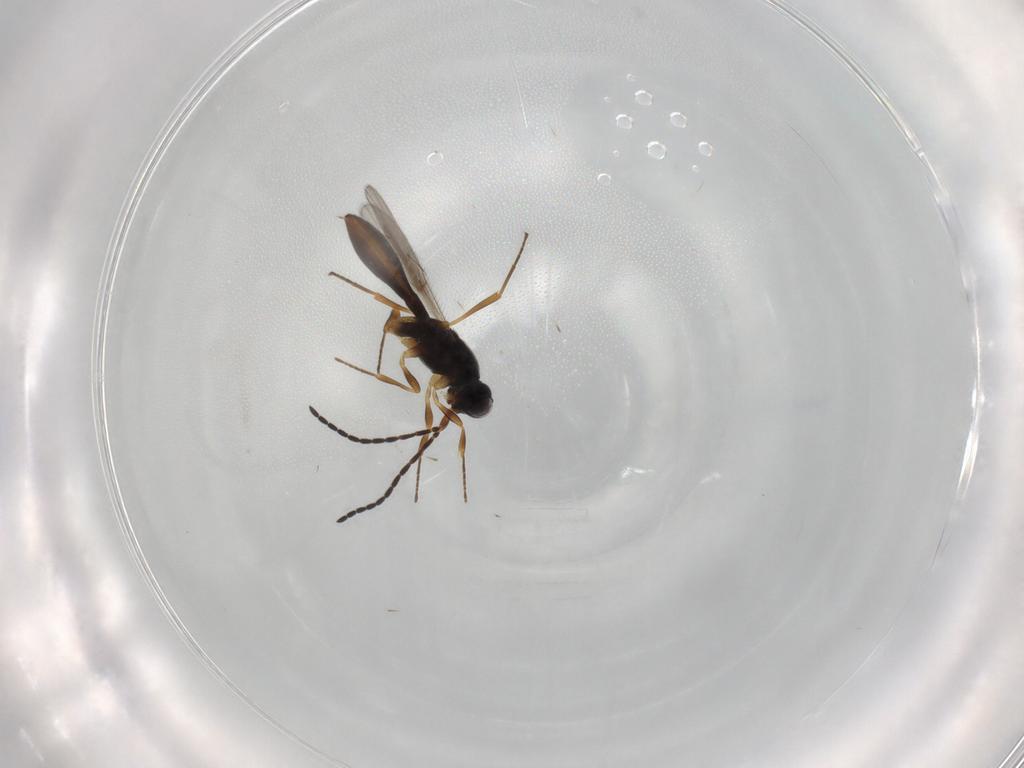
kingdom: Animalia
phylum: Arthropoda
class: Insecta
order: Hymenoptera
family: Scelionidae
